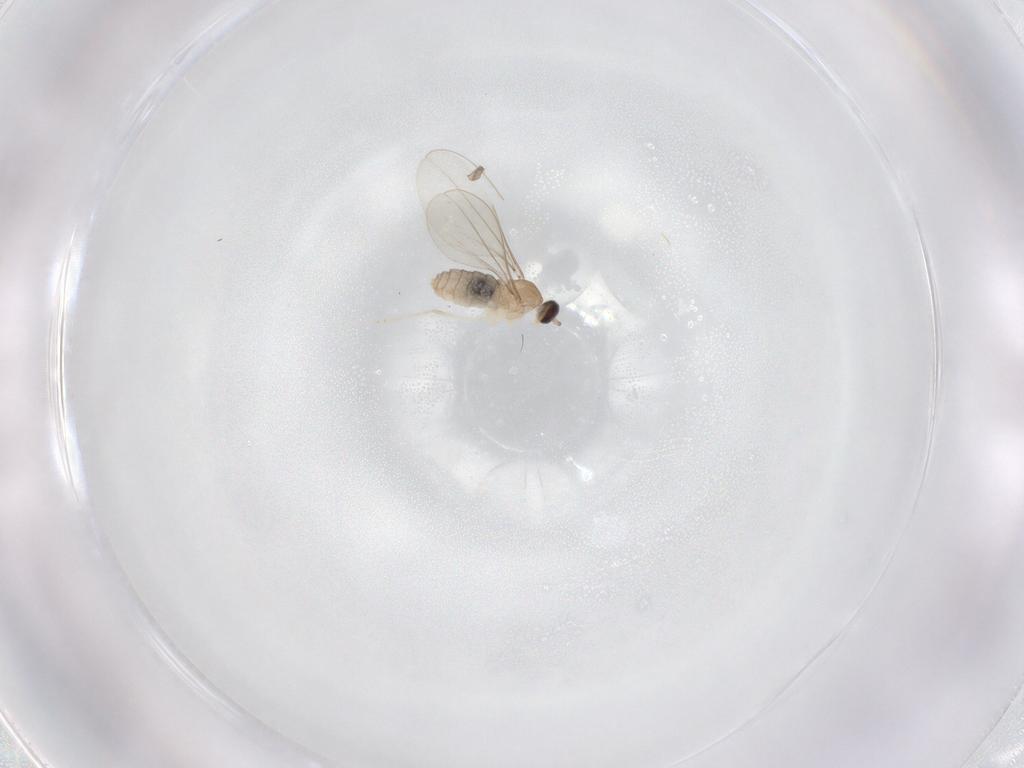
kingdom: Animalia
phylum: Arthropoda
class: Insecta
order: Diptera
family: Cecidomyiidae
